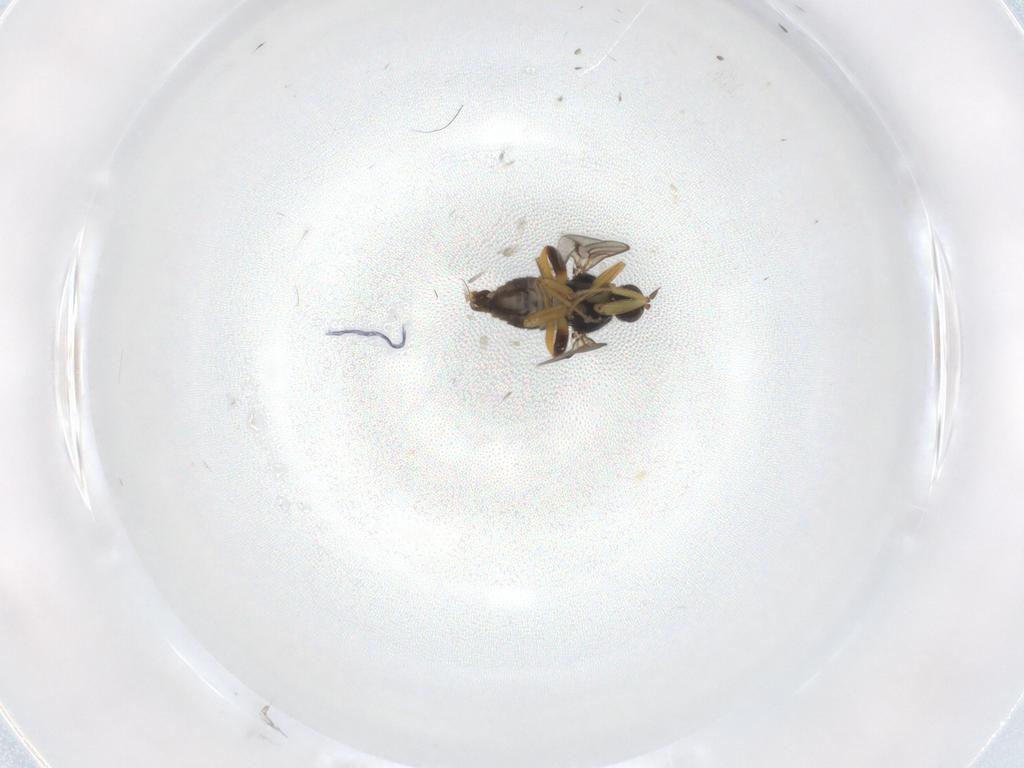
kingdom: Animalia
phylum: Arthropoda
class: Insecta
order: Diptera
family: Hybotidae
